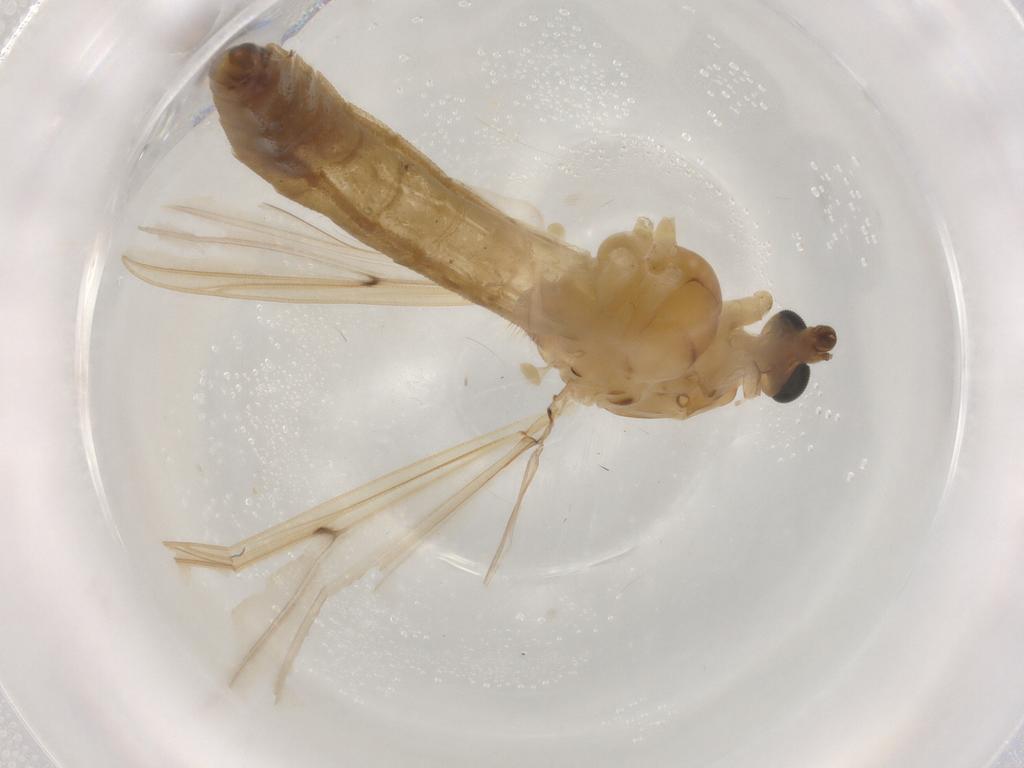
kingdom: Animalia
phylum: Arthropoda
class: Insecta
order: Diptera
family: Chironomidae
